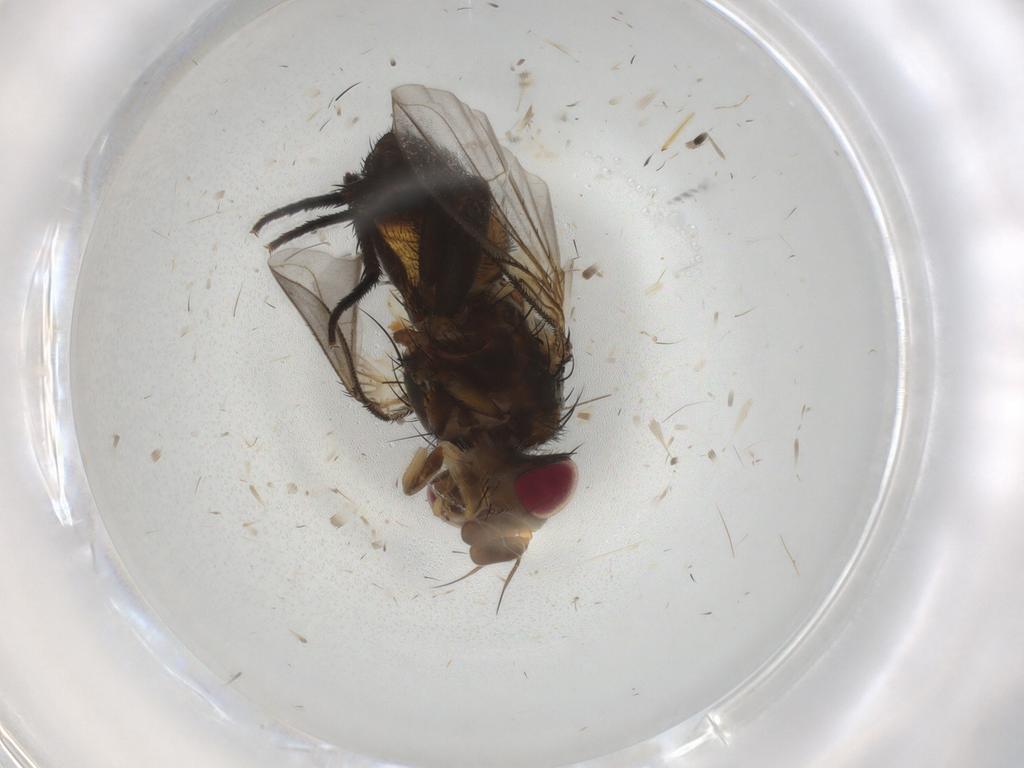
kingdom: Animalia
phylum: Arthropoda
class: Insecta
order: Diptera
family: Muscidae
